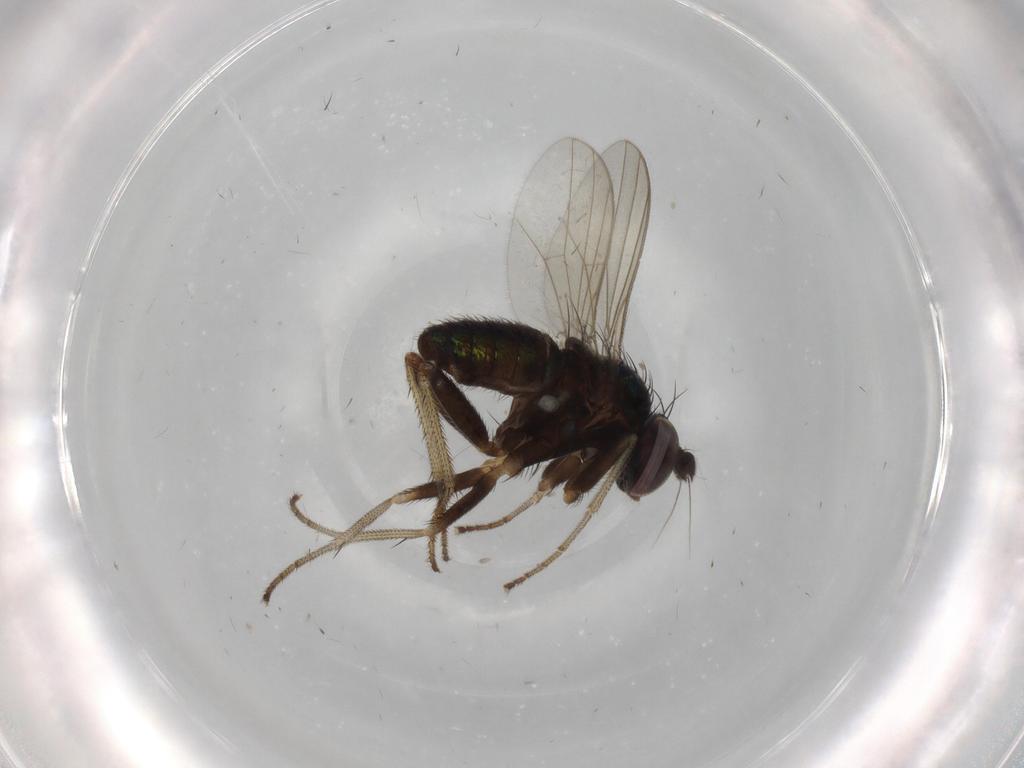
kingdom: Animalia
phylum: Arthropoda
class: Insecta
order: Diptera
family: Dolichopodidae
